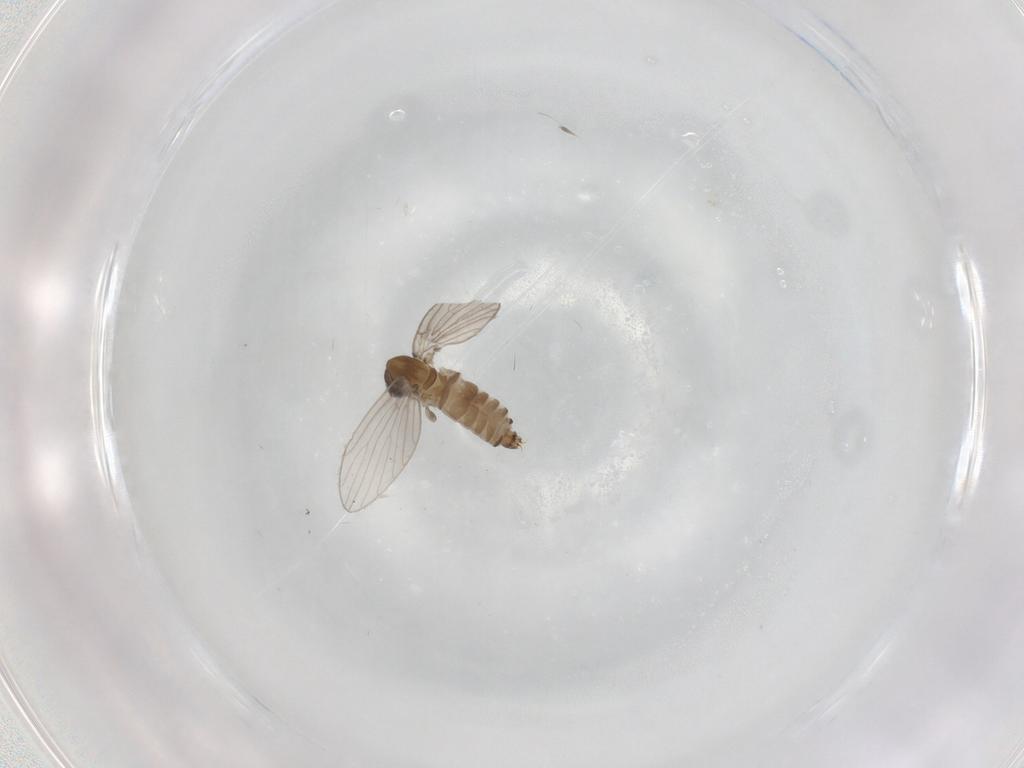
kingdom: Animalia
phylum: Arthropoda
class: Insecta
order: Diptera
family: Psychodidae
